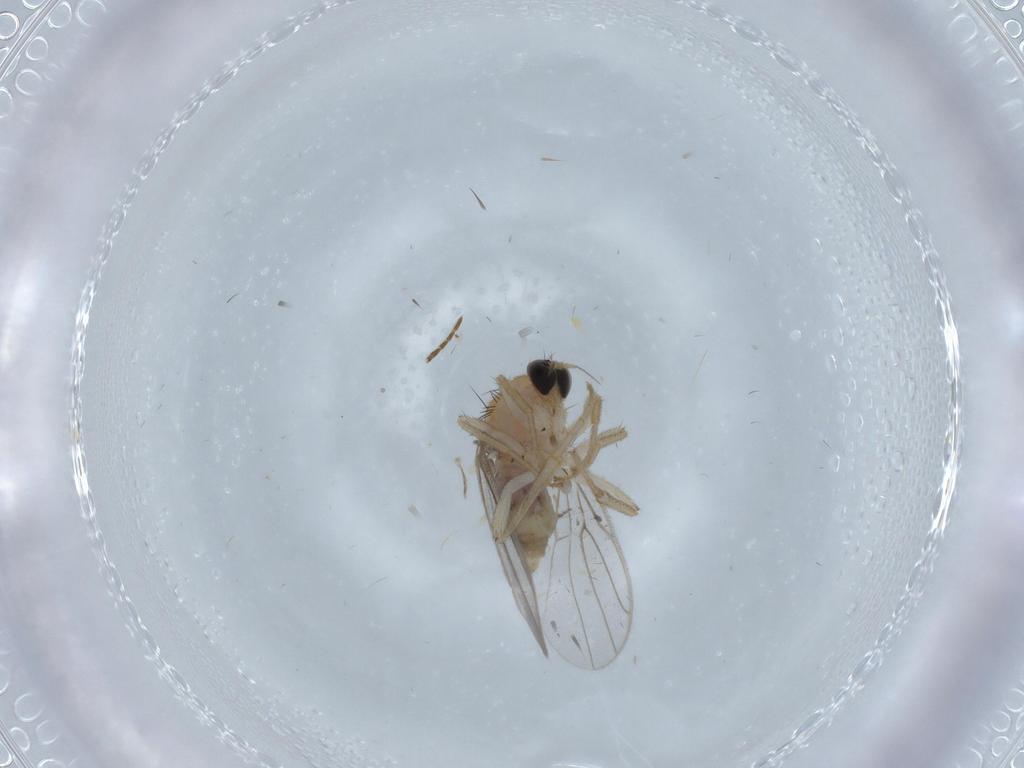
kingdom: Animalia
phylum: Arthropoda
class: Insecta
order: Diptera
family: Hybotidae
